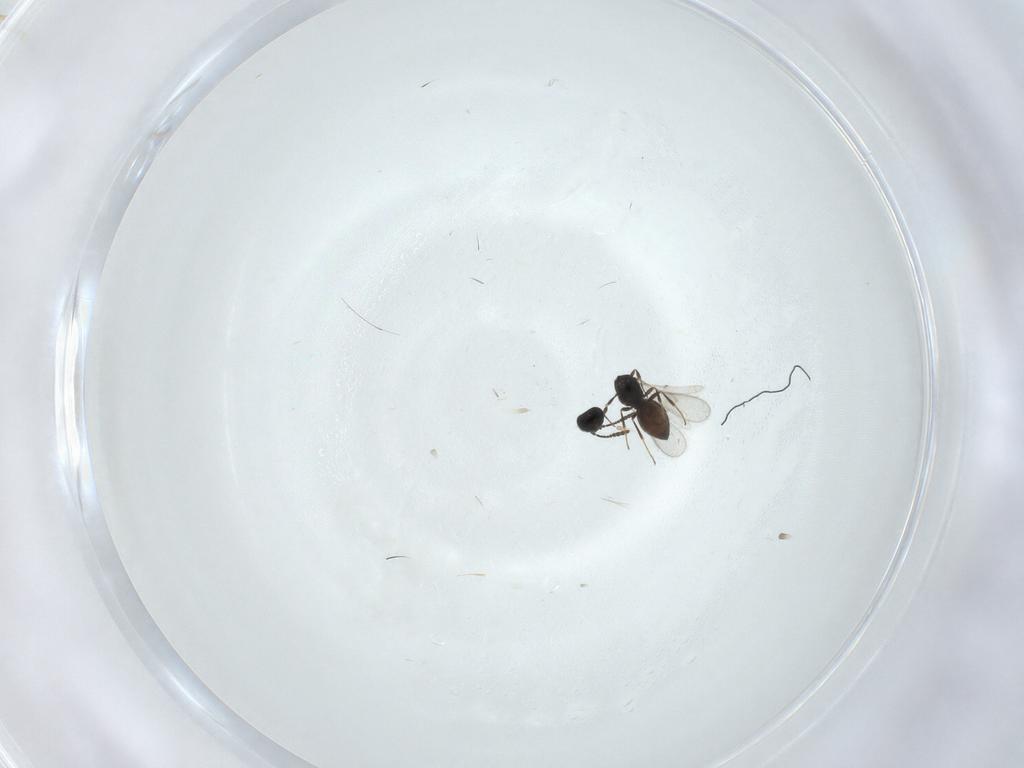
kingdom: Animalia
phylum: Arthropoda
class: Insecta
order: Hymenoptera
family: Scelionidae
